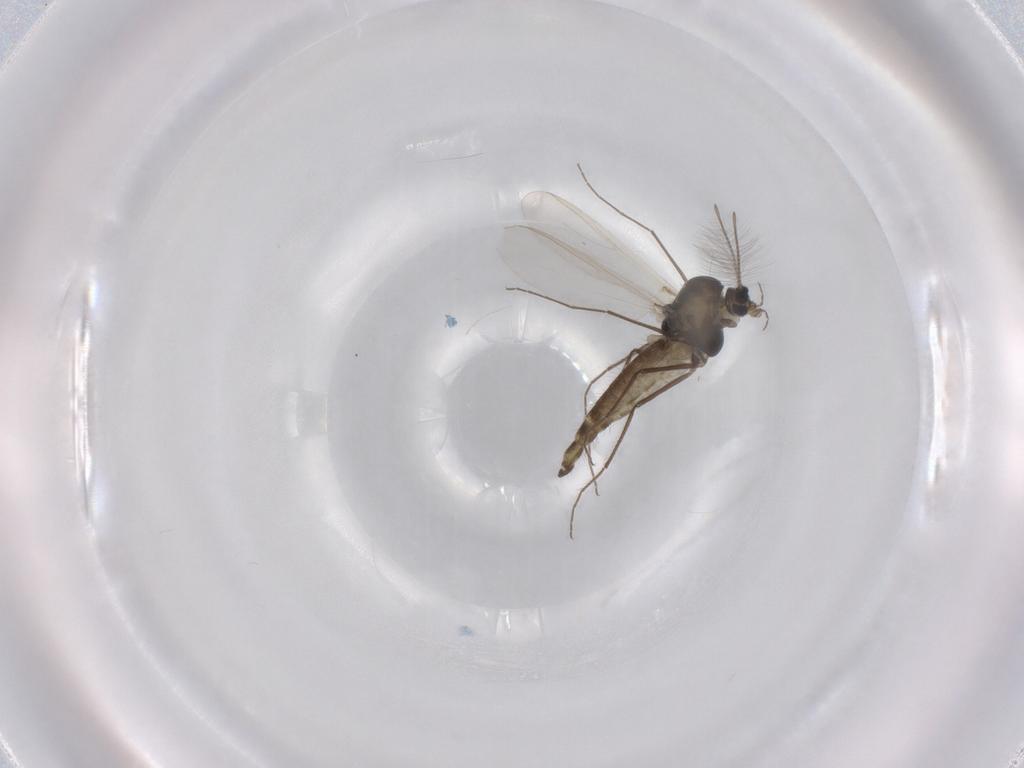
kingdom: Animalia
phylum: Arthropoda
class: Insecta
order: Diptera
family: Chironomidae
